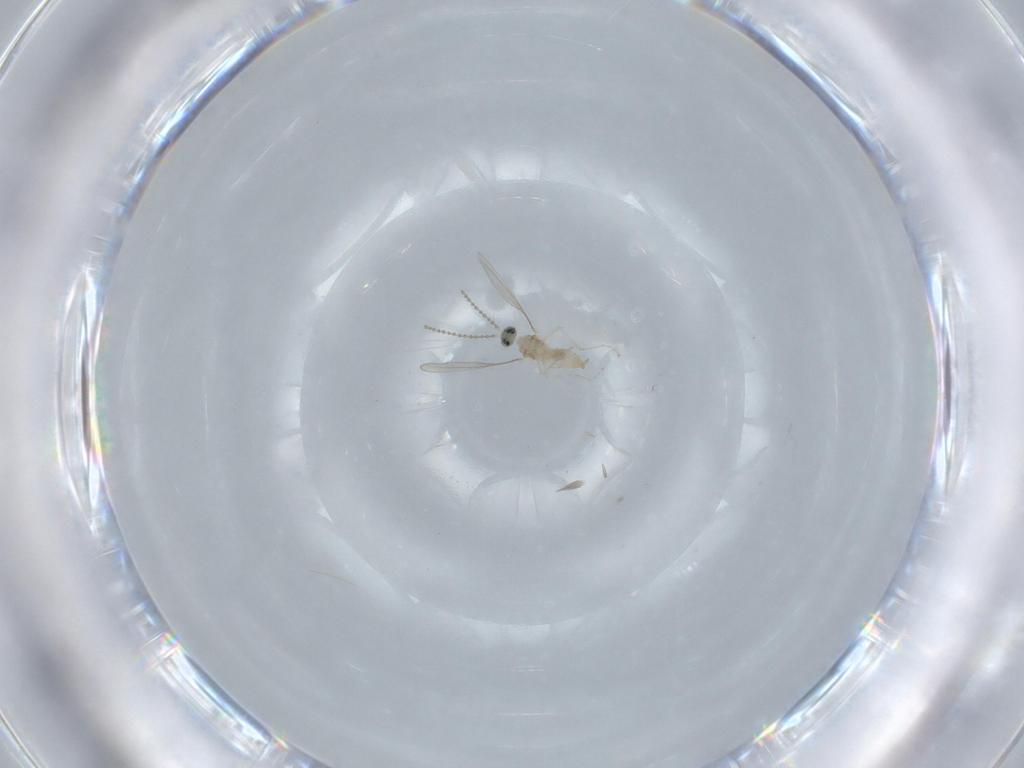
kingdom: Animalia
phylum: Arthropoda
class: Insecta
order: Diptera
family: Cecidomyiidae
